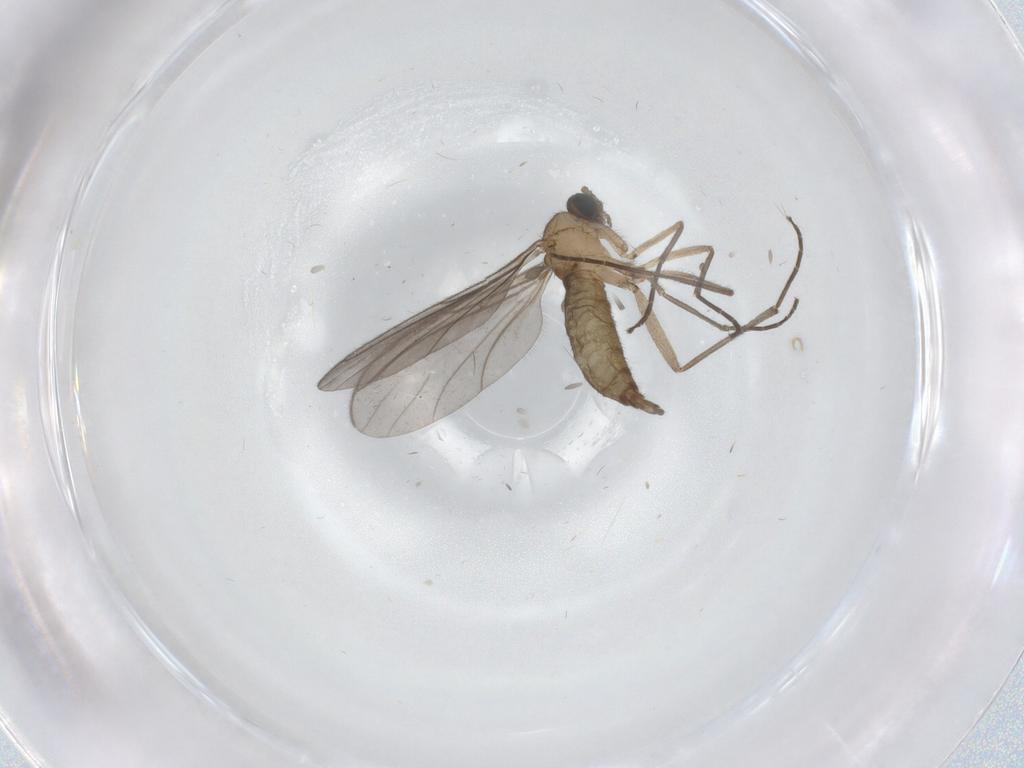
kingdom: Animalia
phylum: Arthropoda
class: Insecta
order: Diptera
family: Sciaridae
